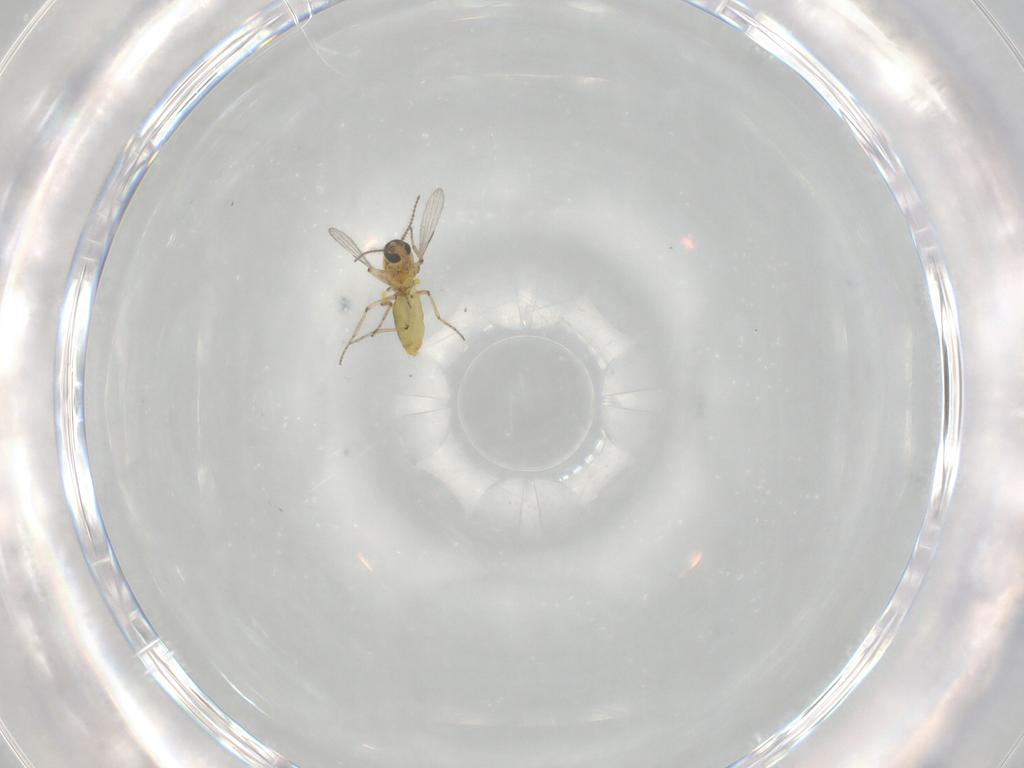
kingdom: Animalia
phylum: Arthropoda
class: Insecta
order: Diptera
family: Ceratopogonidae
